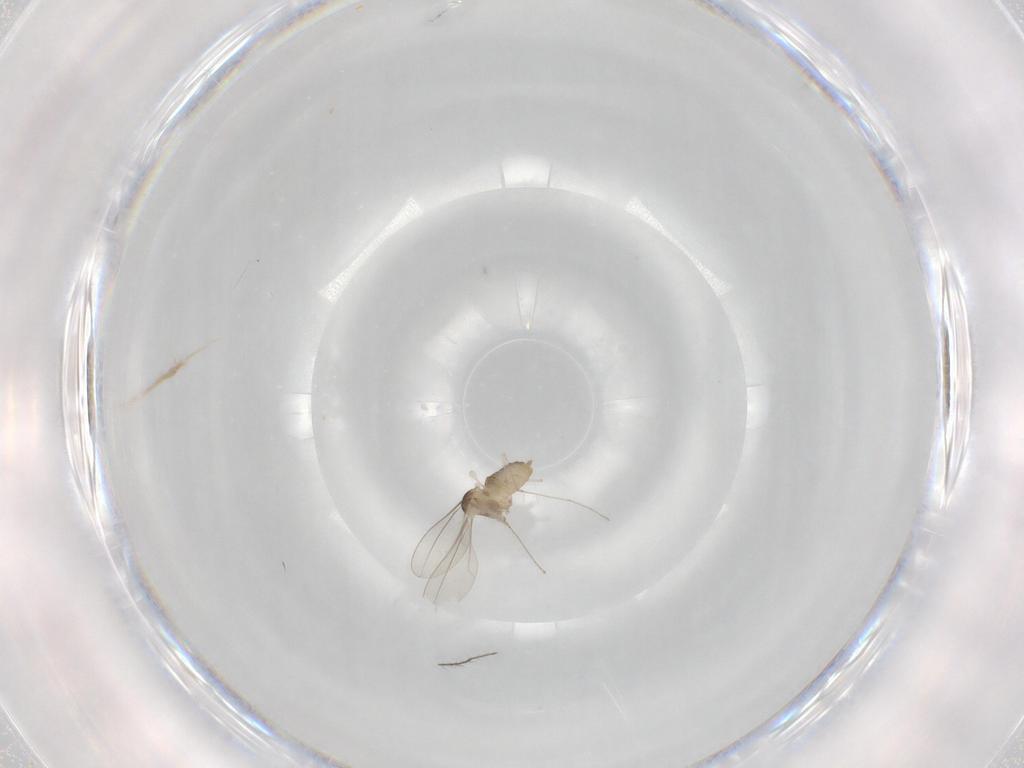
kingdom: Animalia
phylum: Arthropoda
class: Insecta
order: Diptera
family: Cecidomyiidae
